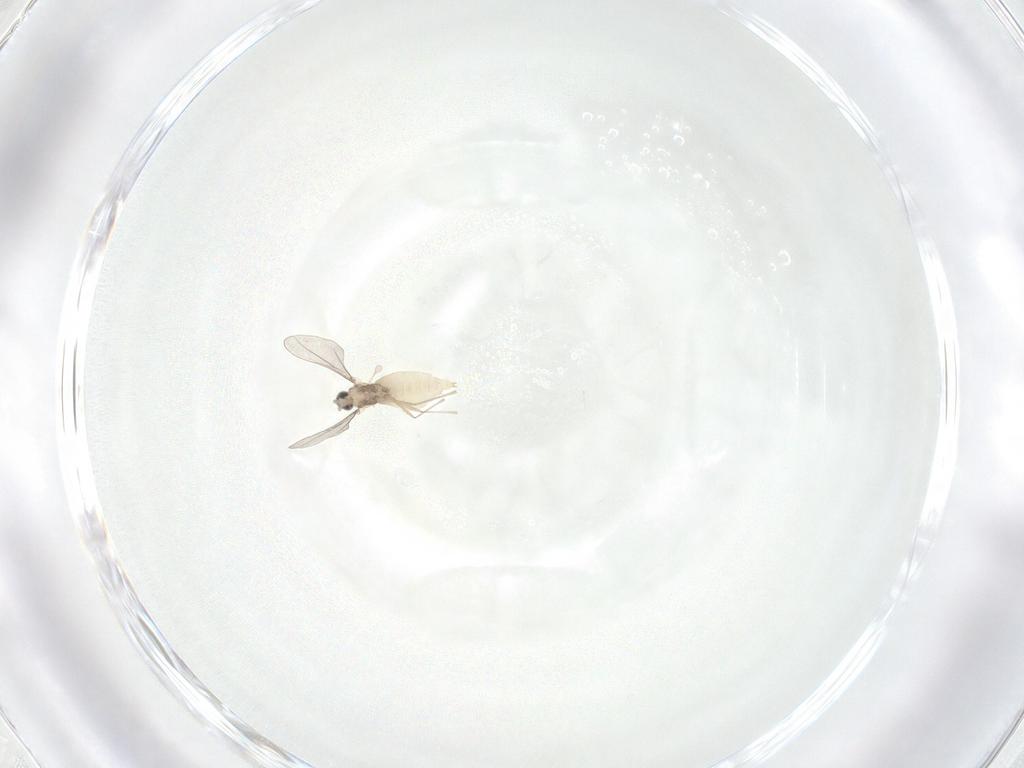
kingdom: Animalia
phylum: Arthropoda
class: Insecta
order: Diptera
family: Cecidomyiidae
